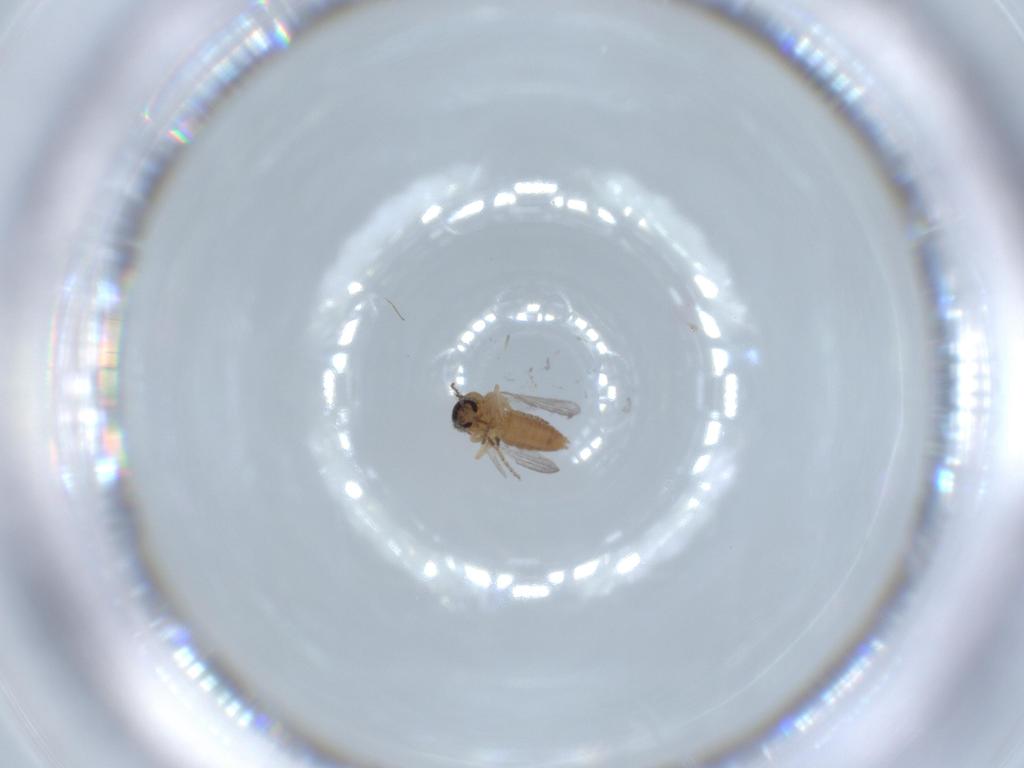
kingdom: Animalia
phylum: Arthropoda
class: Insecta
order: Diptera
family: Ceratopogonidae
